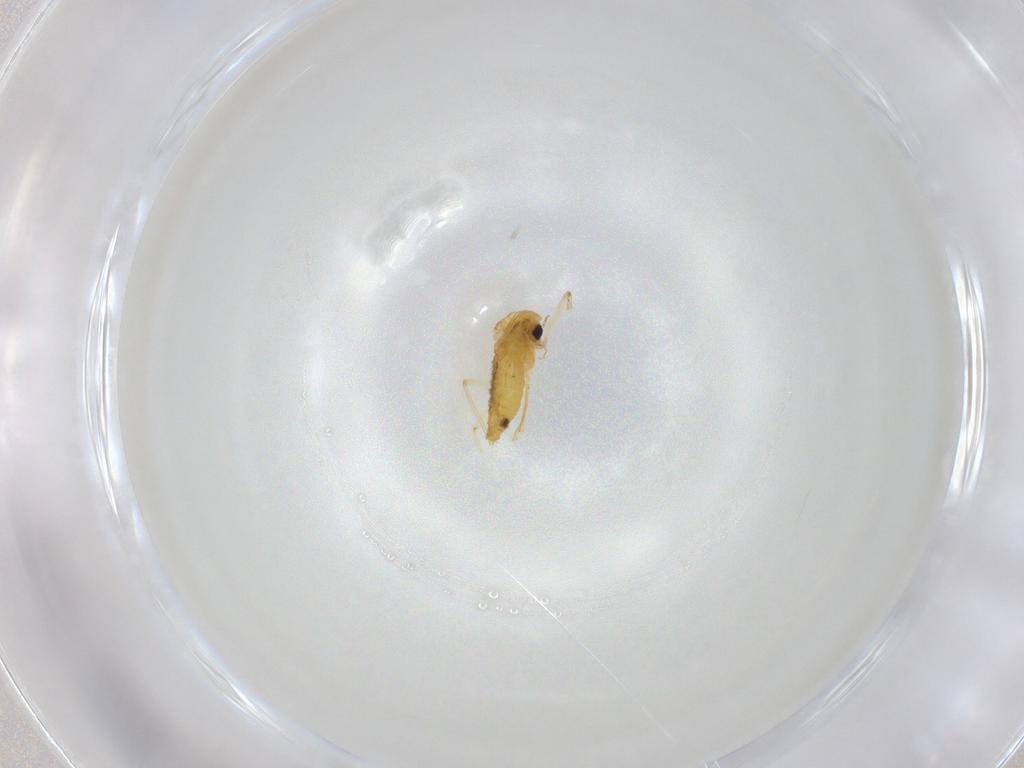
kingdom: Animalia
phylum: Arthropoda
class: Insecta
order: Diptera
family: Chironomidae
